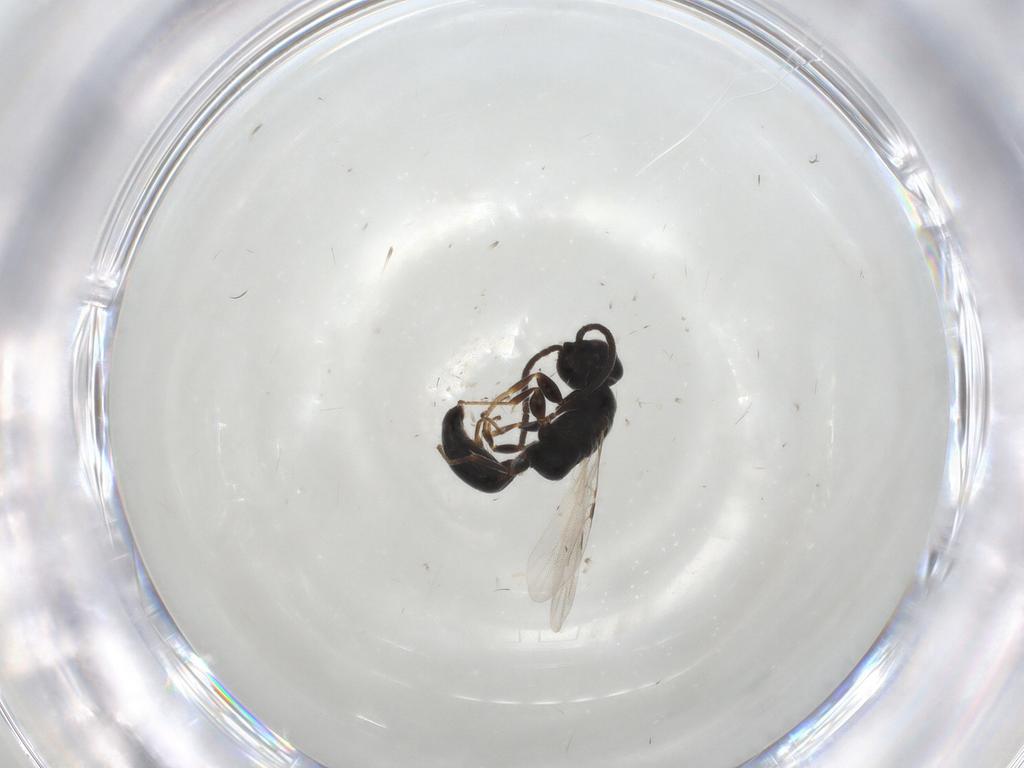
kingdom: Animalia
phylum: Arthropoda
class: Insecta
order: Hymenoptera
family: Bethylidae
